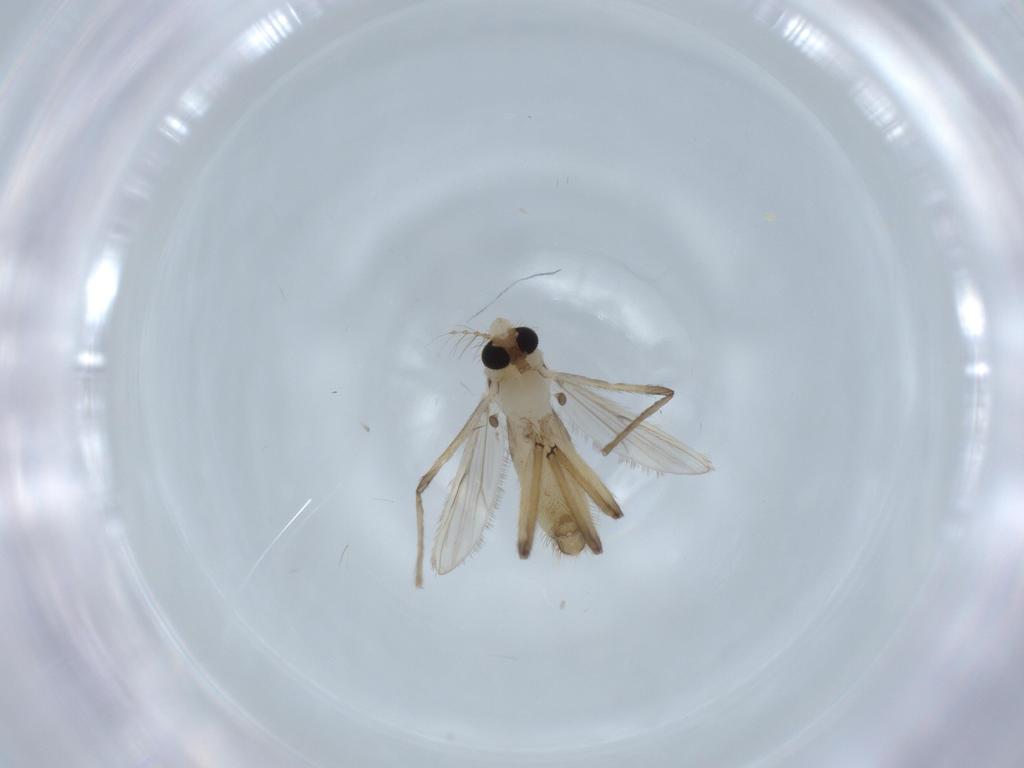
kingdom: Animalia
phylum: Arthropoda
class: Insecta
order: Diptera
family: Chironomidae
